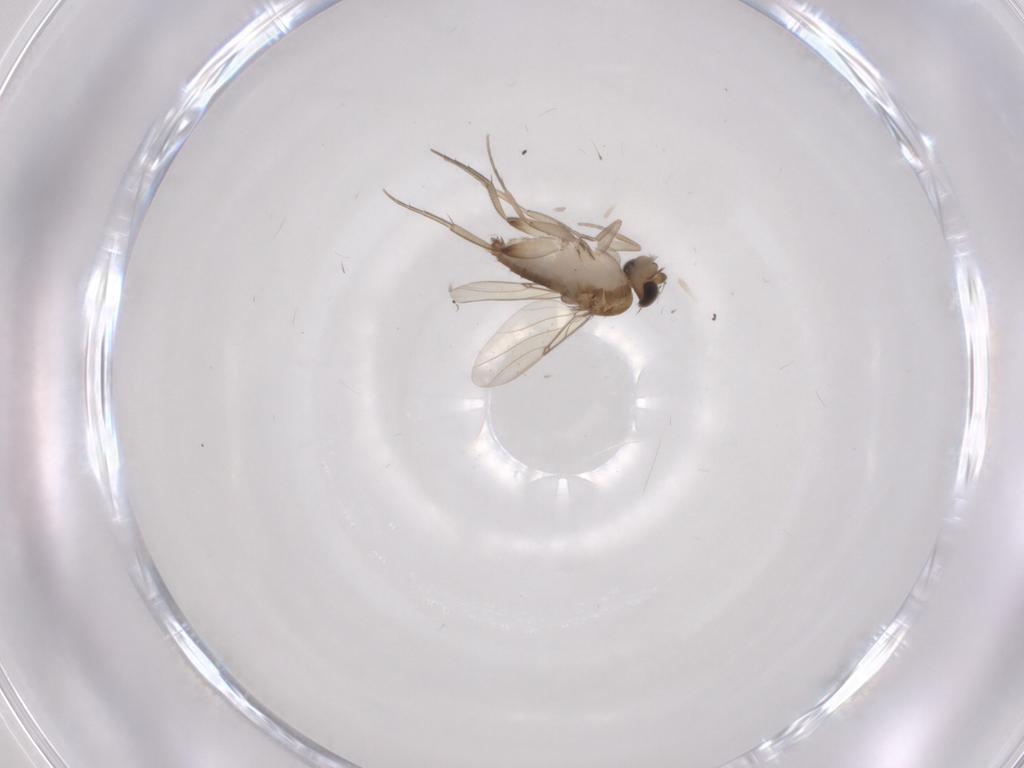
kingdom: Animalia
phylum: Arthropoda
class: Insecta
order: Diptera
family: Phoridae
